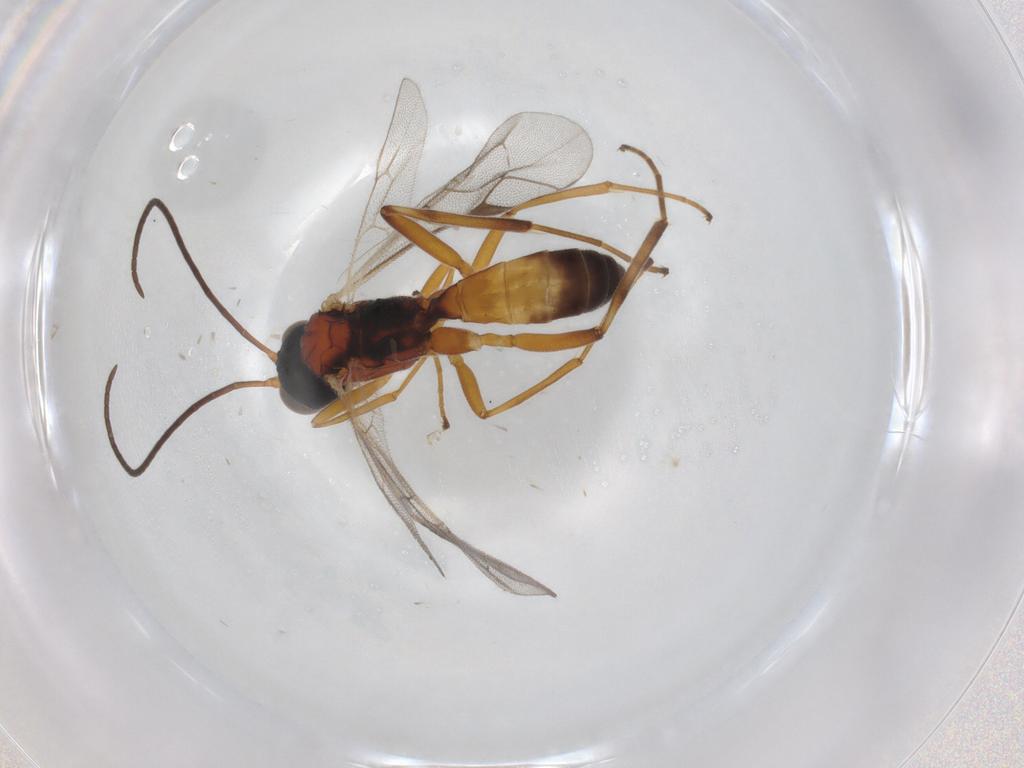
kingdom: Animalia
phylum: Arthropoda
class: Insecta
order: Hymenoptera
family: Ichneumonidae
